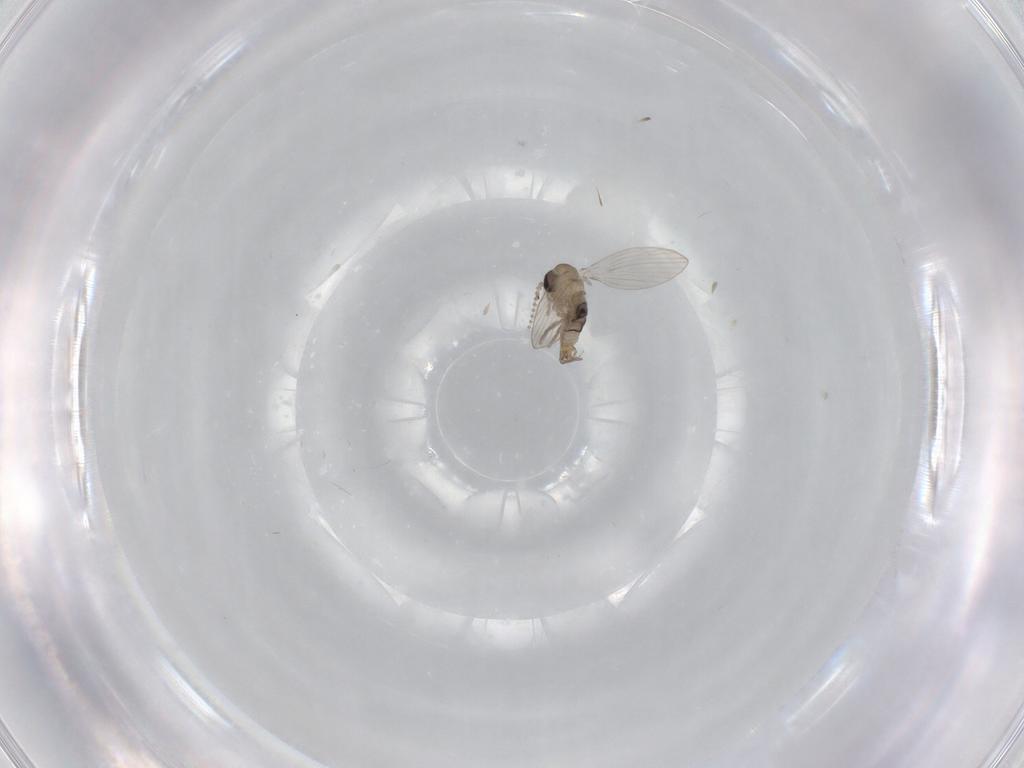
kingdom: Animalia
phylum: Arthropoda
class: Insecta
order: Diptera
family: Psychodidae
